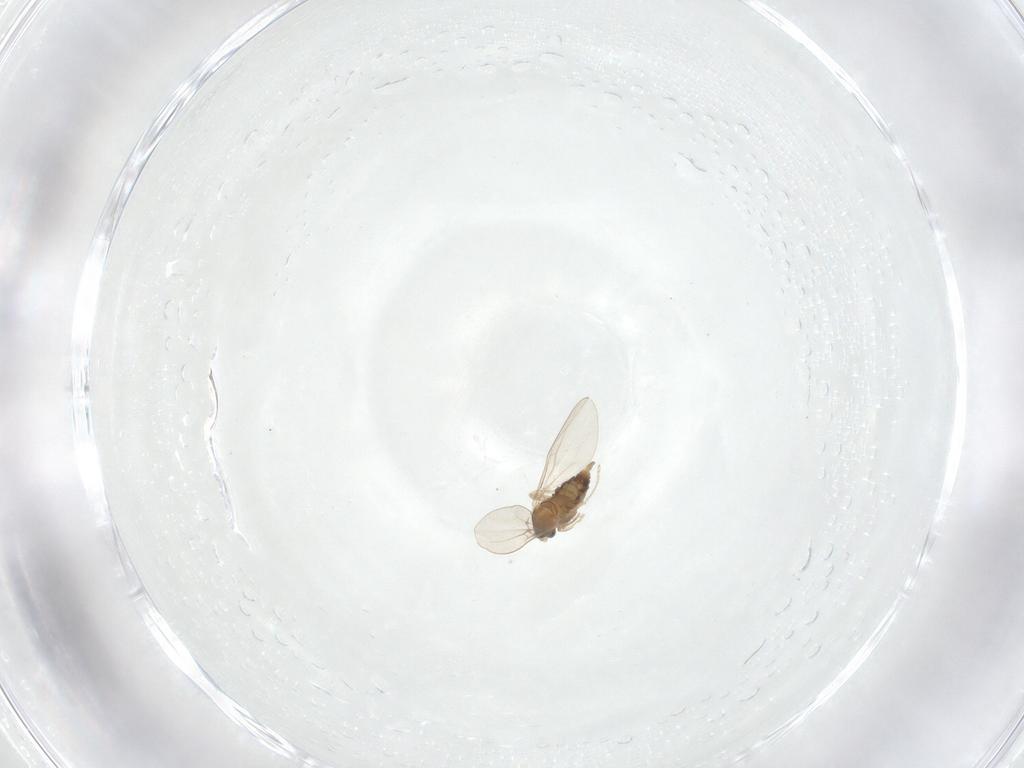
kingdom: Animalia
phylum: Arthropoda
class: Insecta
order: Diptera
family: Cecidomyiidae
